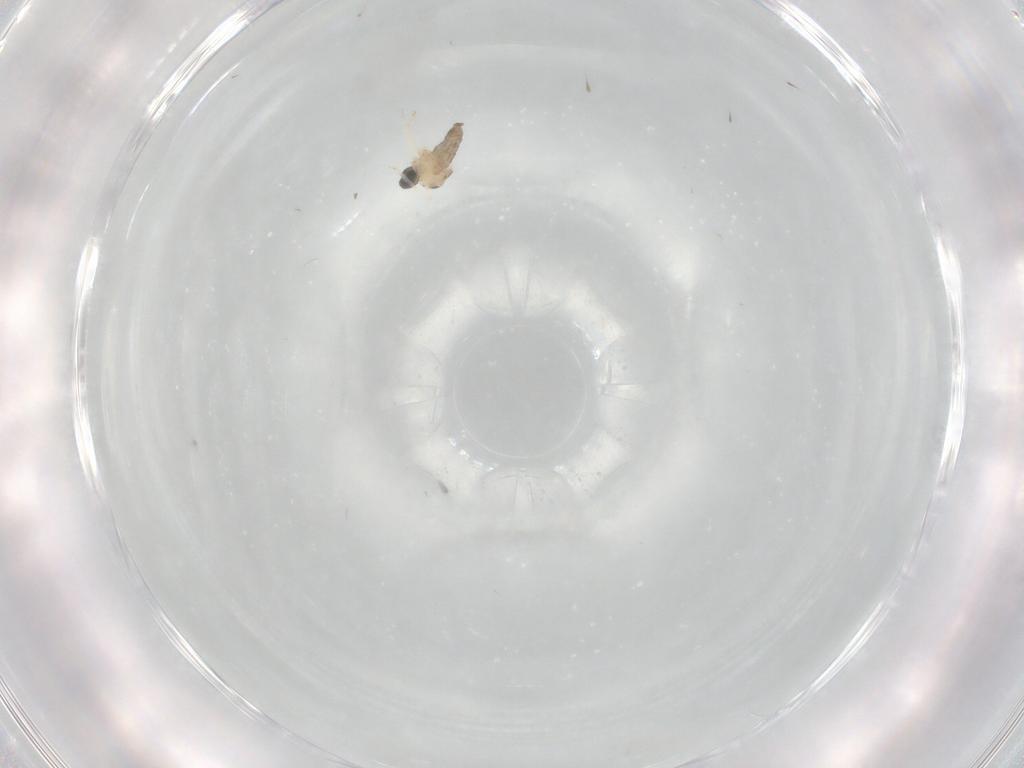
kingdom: Animalia
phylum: Arthropoda
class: Insecta
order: Diptera
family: Cecidomyiidae
